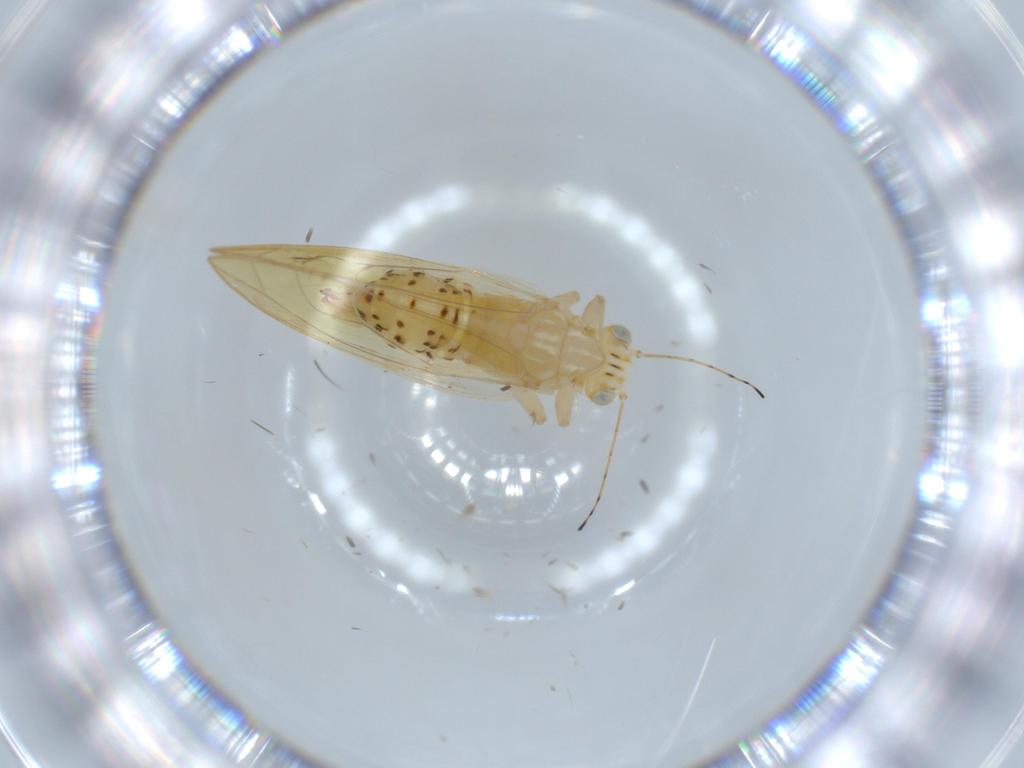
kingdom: Animalia
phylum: Arthropoda
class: Insecta
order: Hemiptera
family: Triozidae
